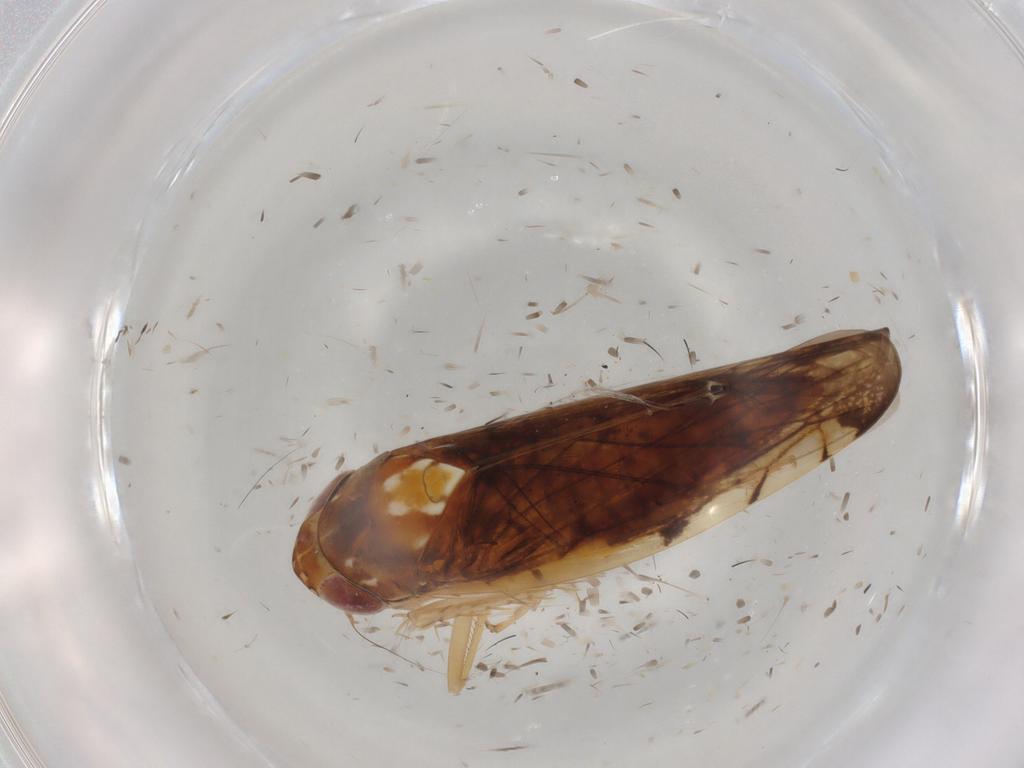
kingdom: Animalia
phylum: Arthropoda
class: Insecta
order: Hemiptera
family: Cicadellidae
